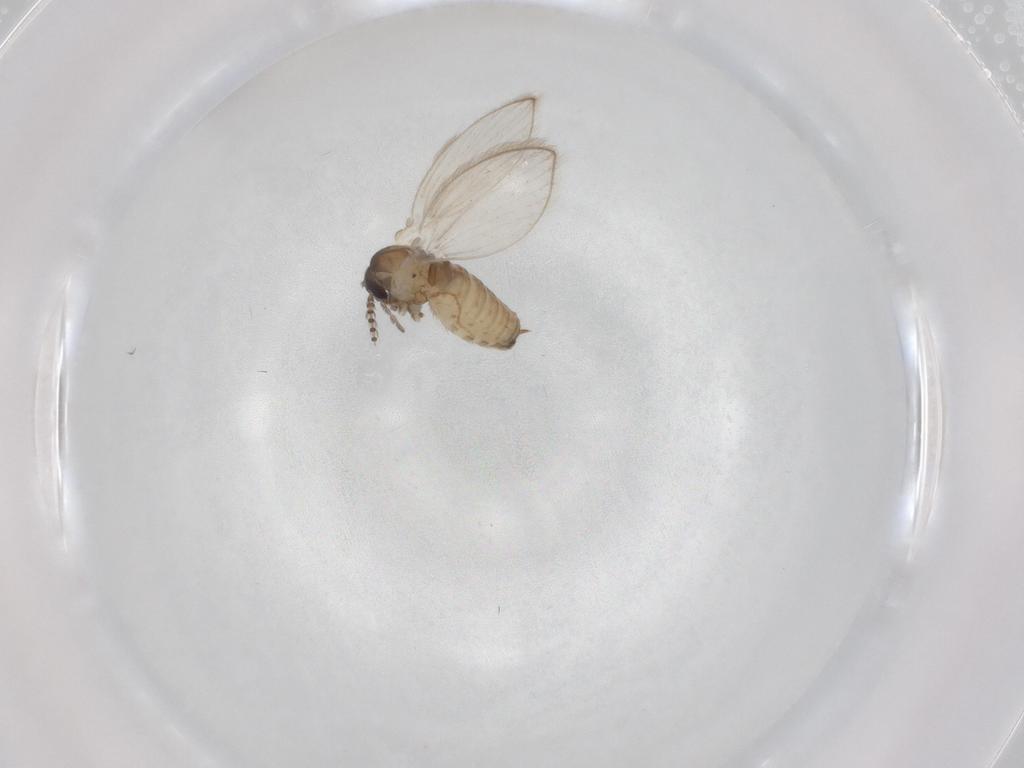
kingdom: Animalia
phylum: Arthropoda
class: Insecta
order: Diptera
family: Psychodidae
